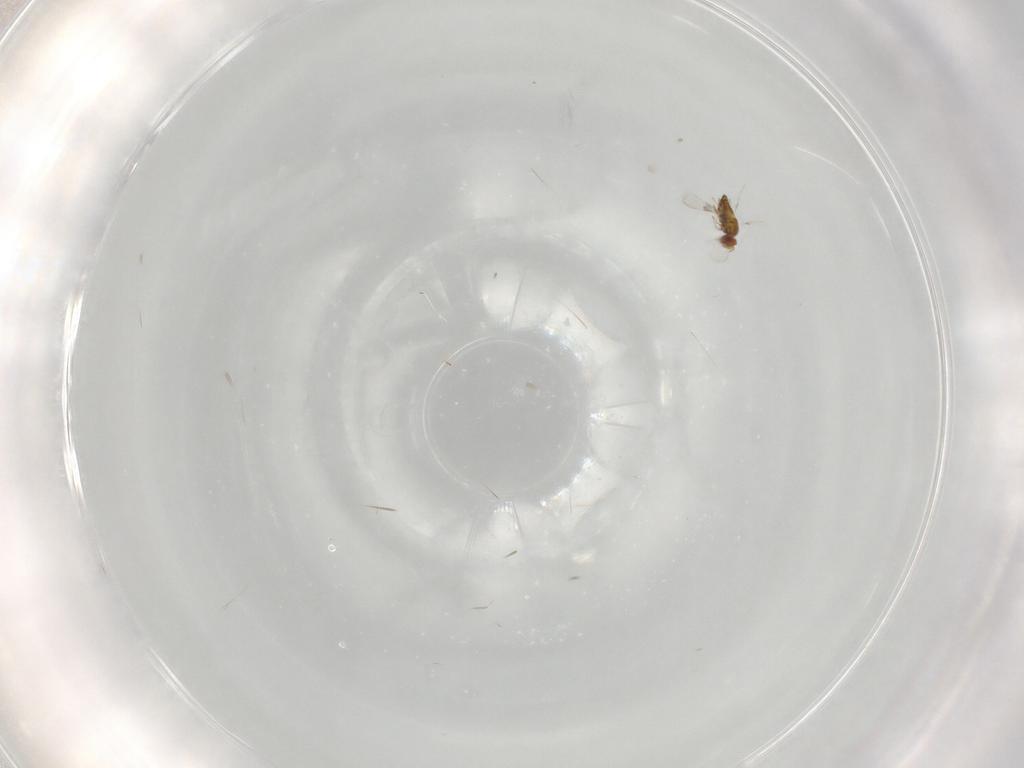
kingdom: Animalia
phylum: Arthropoda
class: Insecta
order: Hymenoptera
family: Trichogrammatidae
